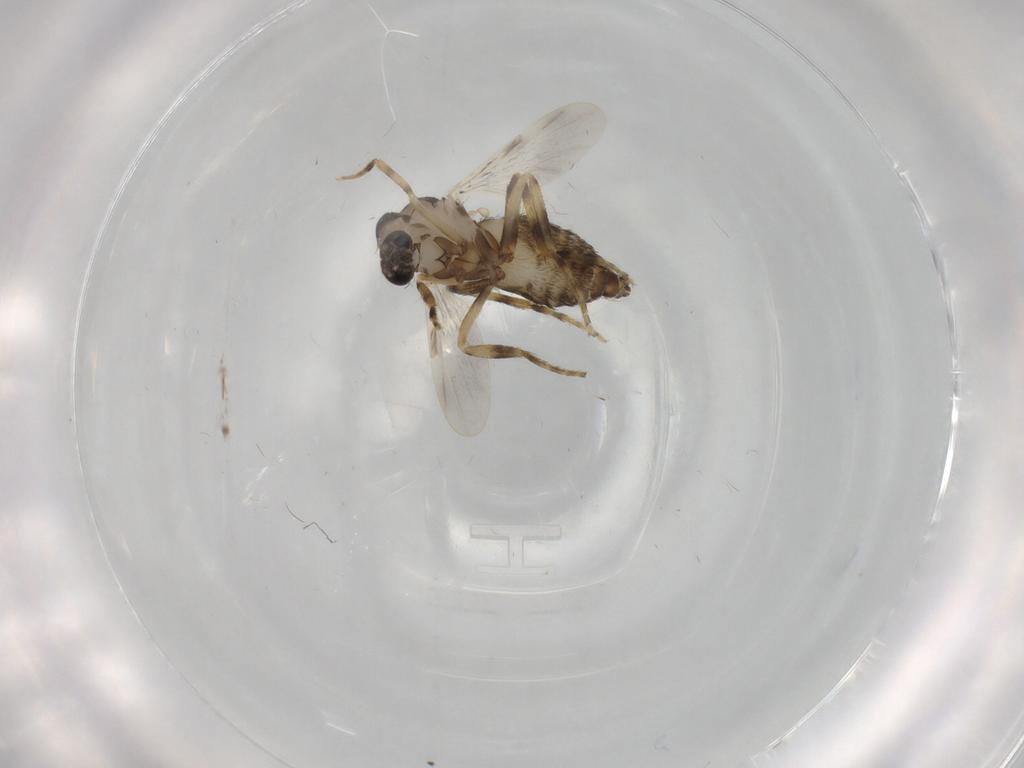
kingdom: Animalia
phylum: Arthropoda
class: Insecta
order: Diptera
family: Ceratopogonidae
